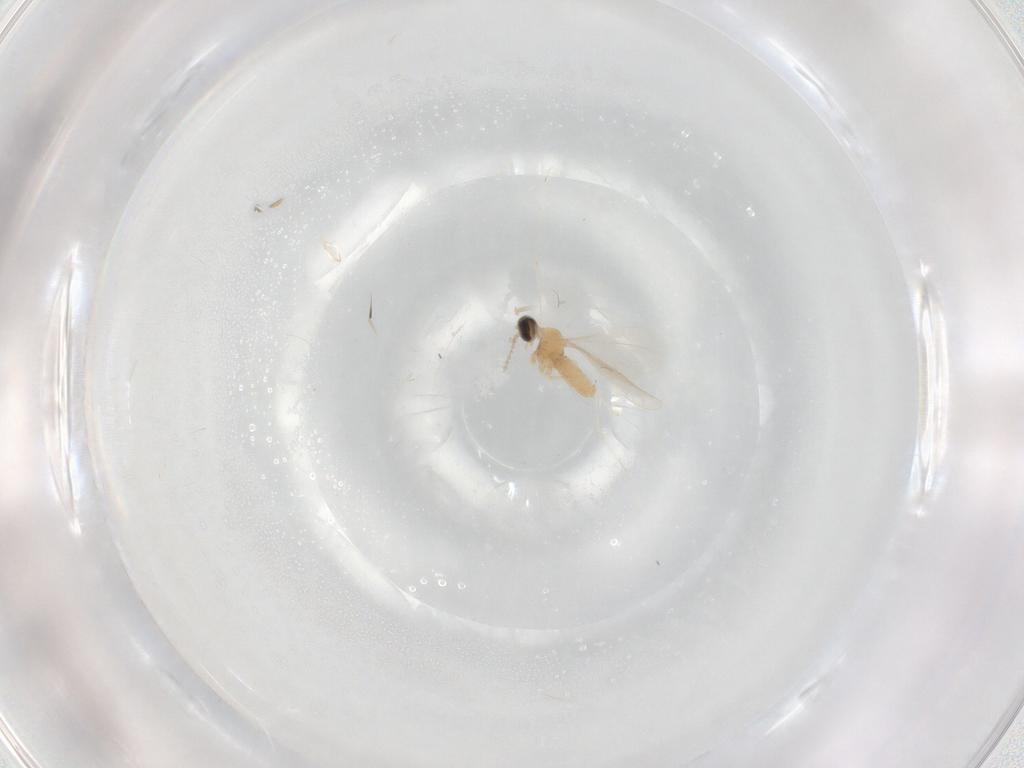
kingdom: Animalia
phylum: Arthropoda
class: Insecta
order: Diptera
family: Cecidomyiidae
